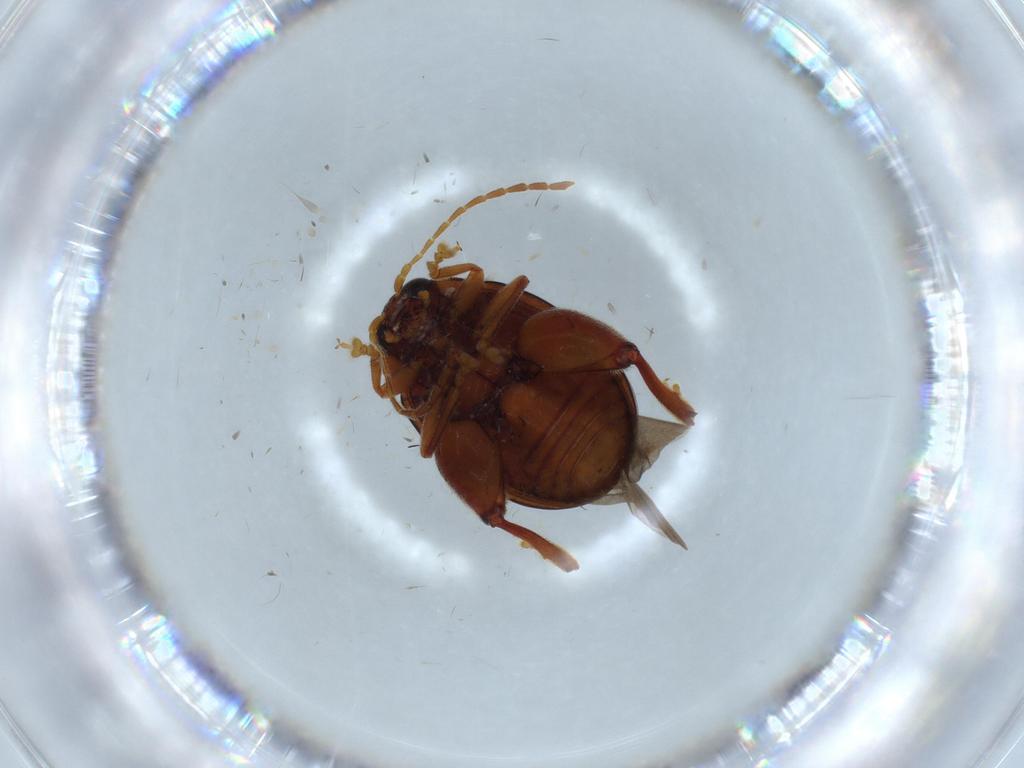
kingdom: Animalia
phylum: Arthropoda
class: Insecta
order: Coleoptera
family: Chrysomelidae
